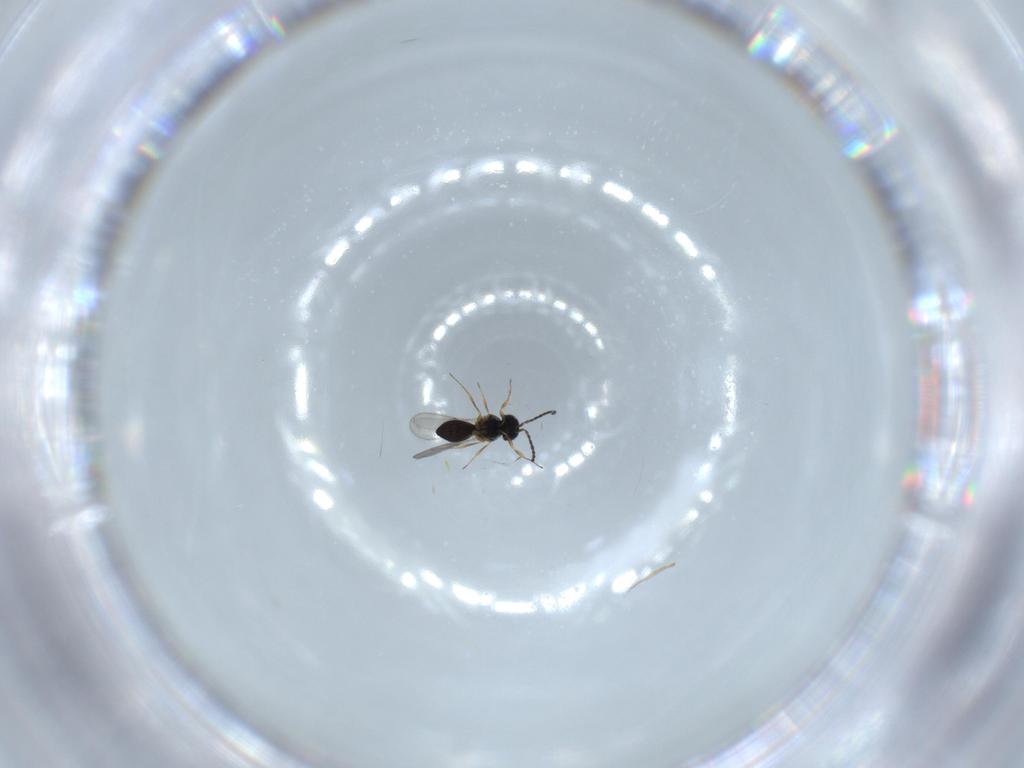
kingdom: Animalia
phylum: Arthropoda
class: Insecta
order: Hymenoptera
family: Scelionidae
